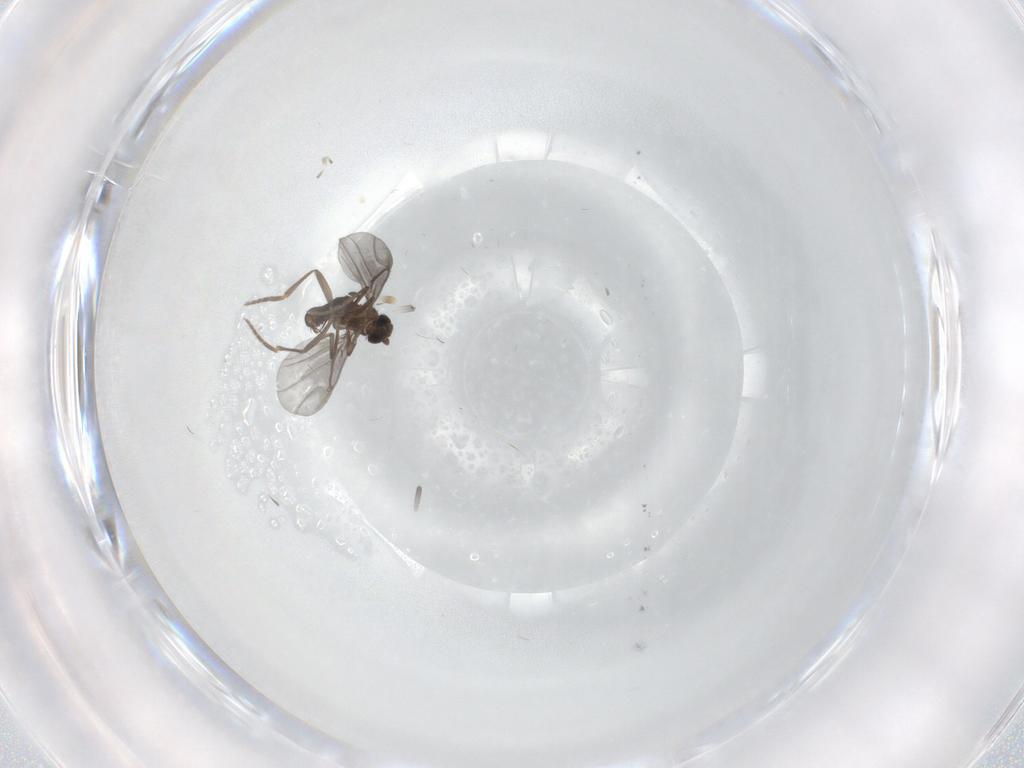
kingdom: Animalia
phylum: Arthropoda
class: Insecta
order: Diptera
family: Phoridae
